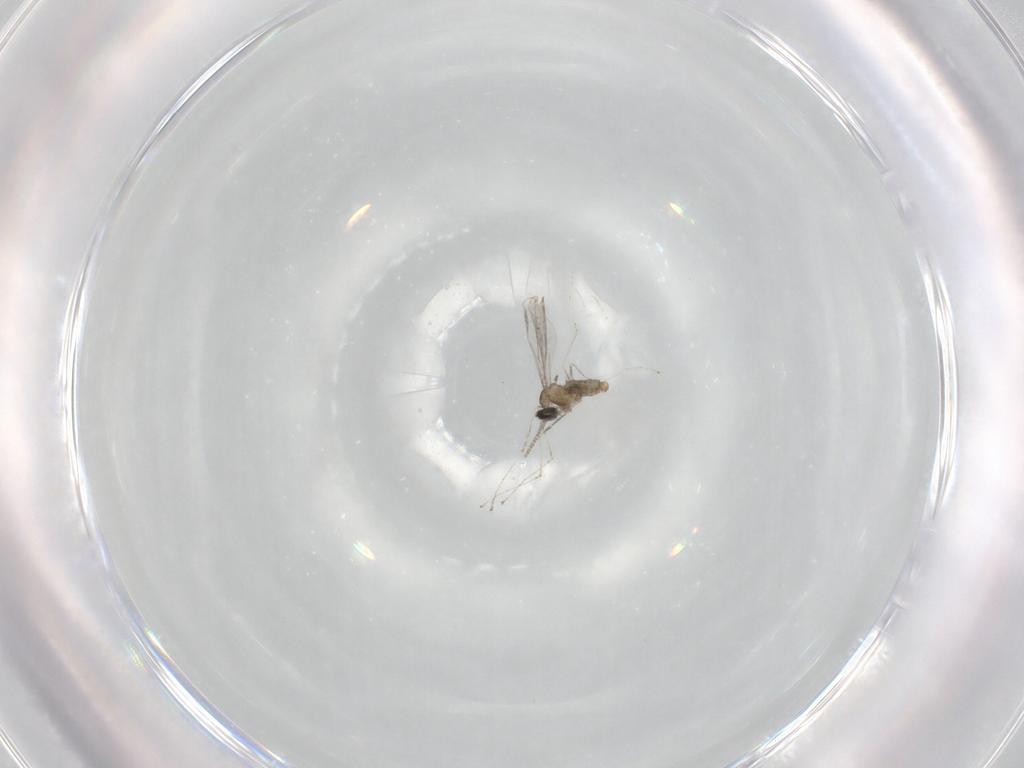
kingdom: Animalia
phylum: Arthropoda
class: Insecta
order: Diptera
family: Cecidomyiidae
